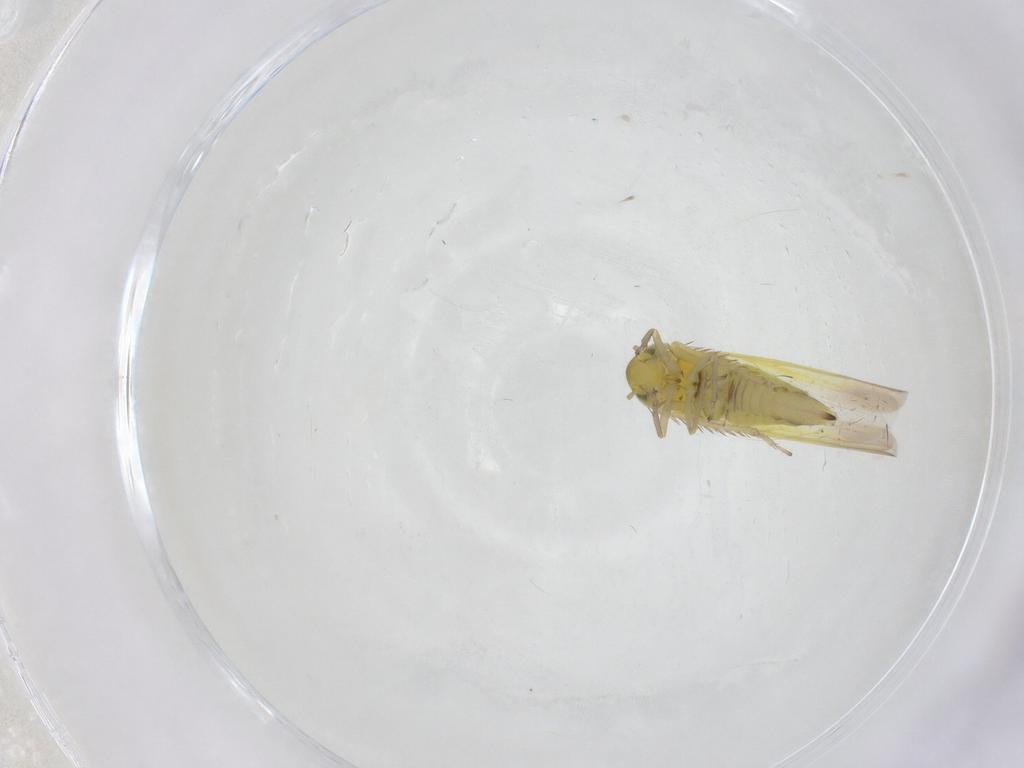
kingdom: Animalia
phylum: Arthropoda
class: Insecta
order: Hemiptera
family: Cicadellidae
